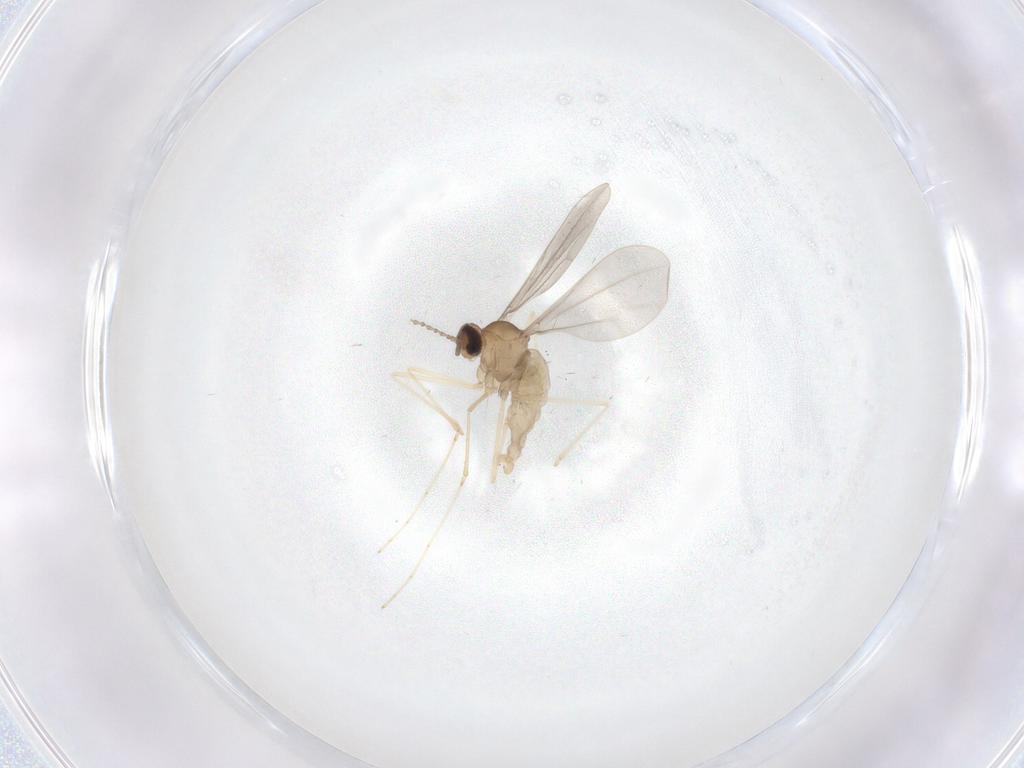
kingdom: Animalia
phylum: Arthropoda
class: Insecta
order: Diptera
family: Cecidomyiidae
